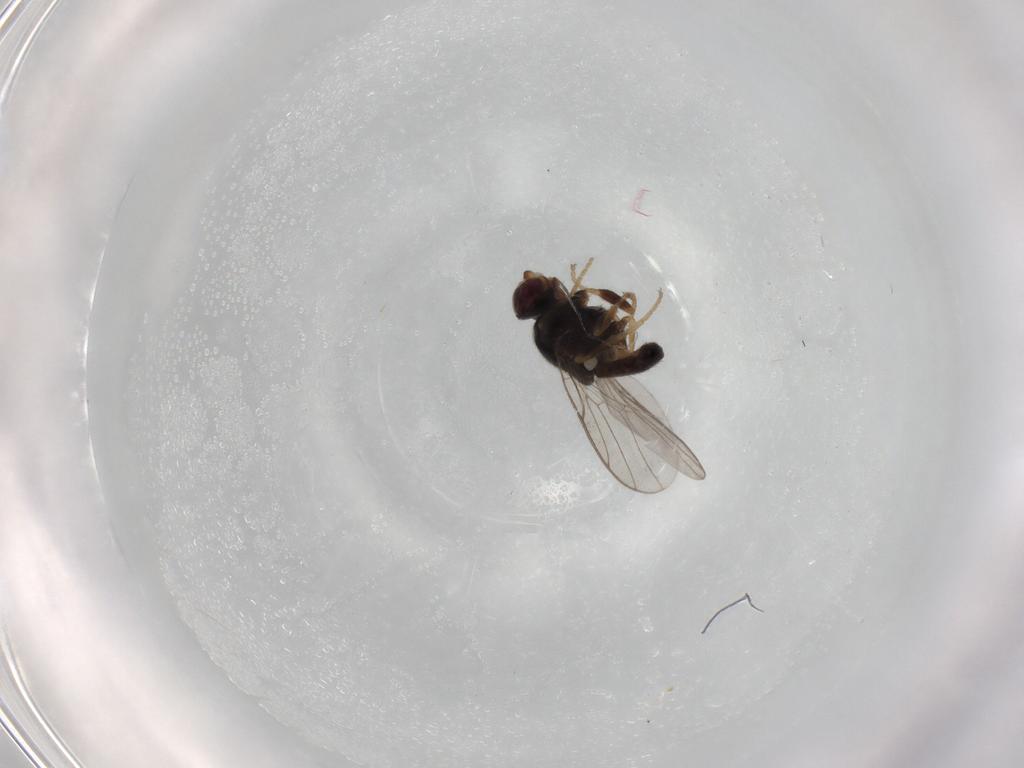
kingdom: Animalia
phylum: Arthropoda
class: Insecta
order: Diptera
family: Chloropidae
